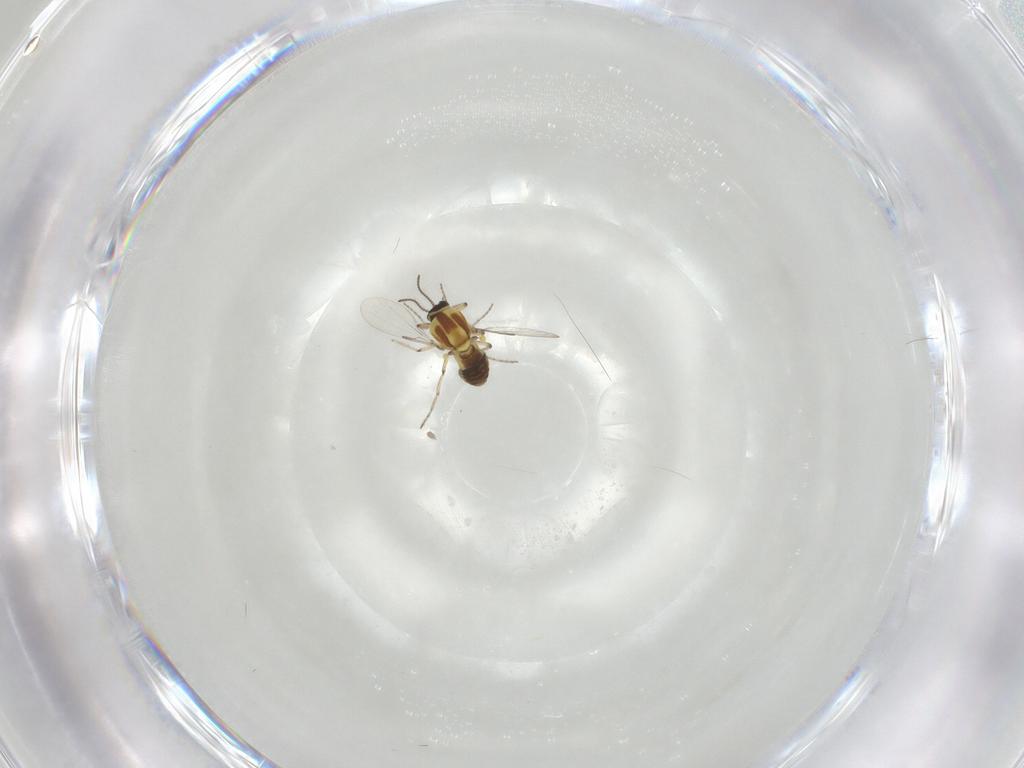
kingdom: Animalia
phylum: Arthropoda
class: Insecta
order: Diptera
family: Ceratopogonidae
